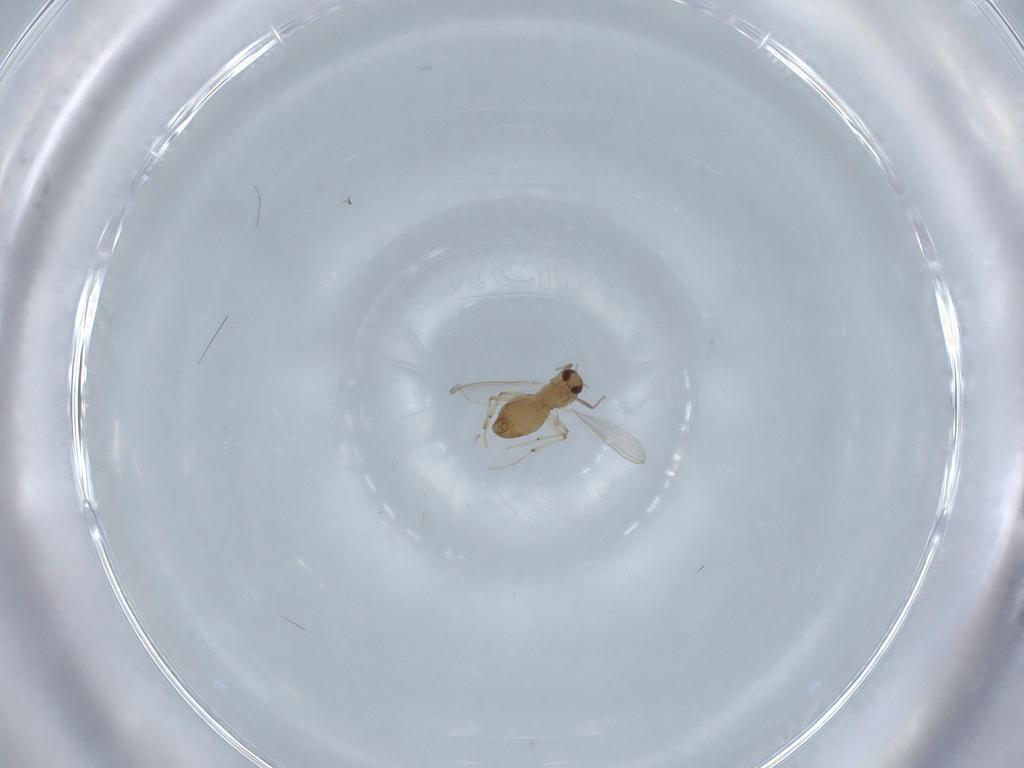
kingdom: Animalia
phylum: Arthropoda
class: Insecta
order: Diptera
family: Chironomidae
